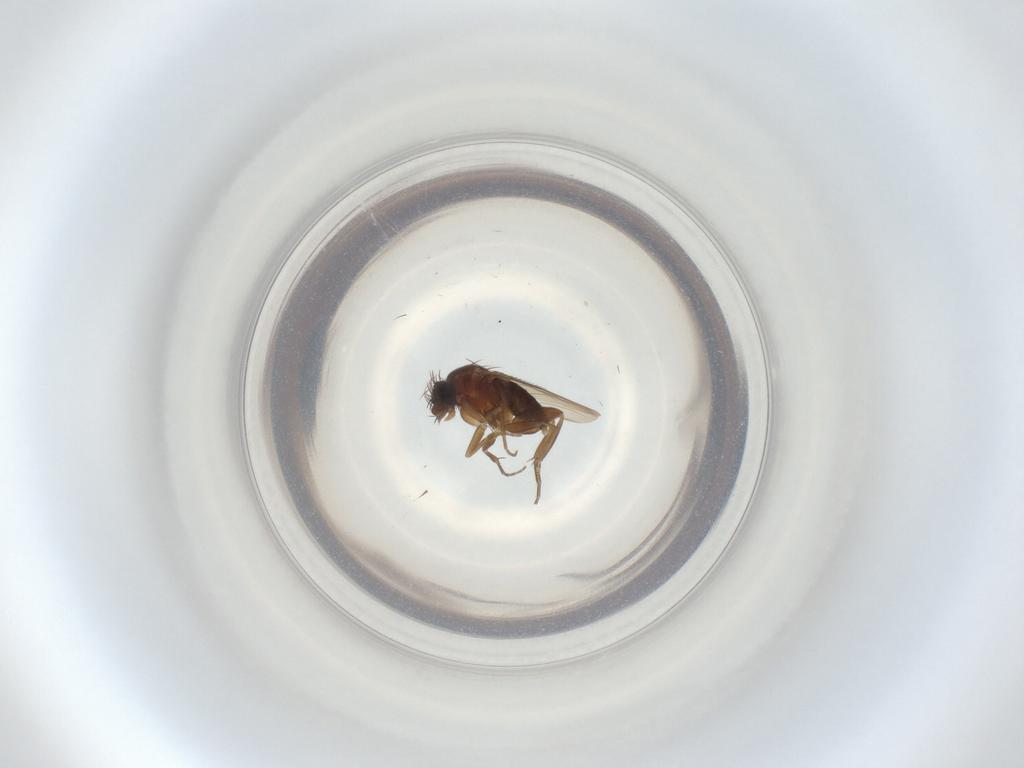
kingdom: Animalia
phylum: Arthropoda
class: Insecta
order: Diptera
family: Phoridae
